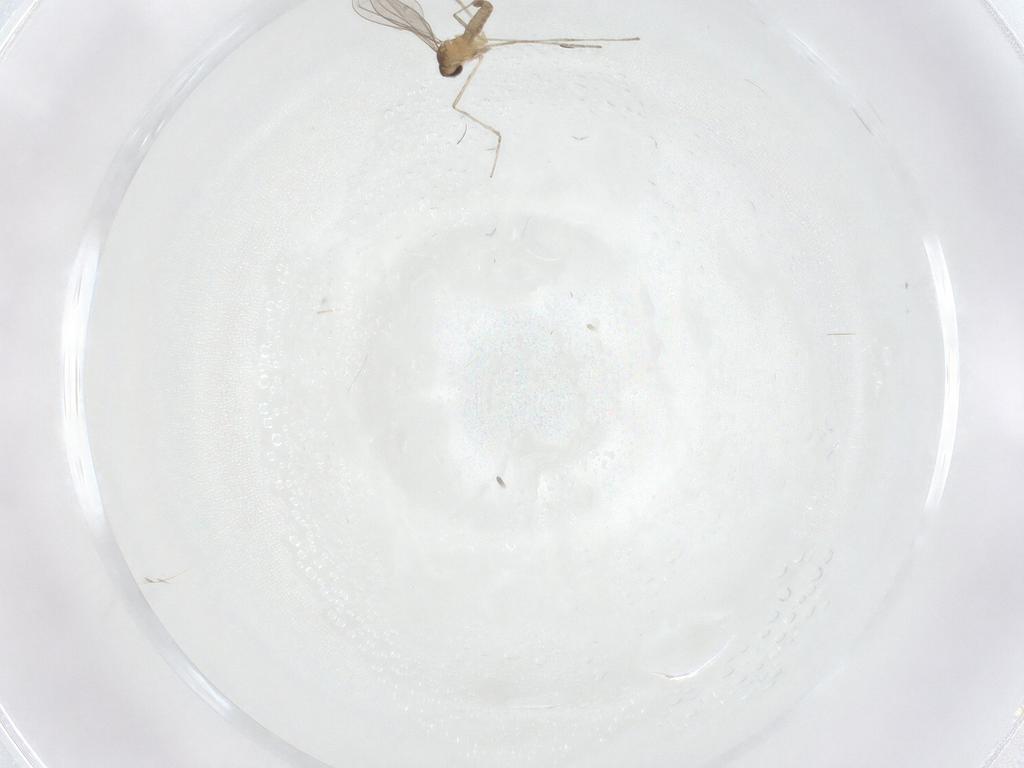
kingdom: Animalia
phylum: Arthropoda
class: Insecta
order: Diptera
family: Cecidomyiidae
